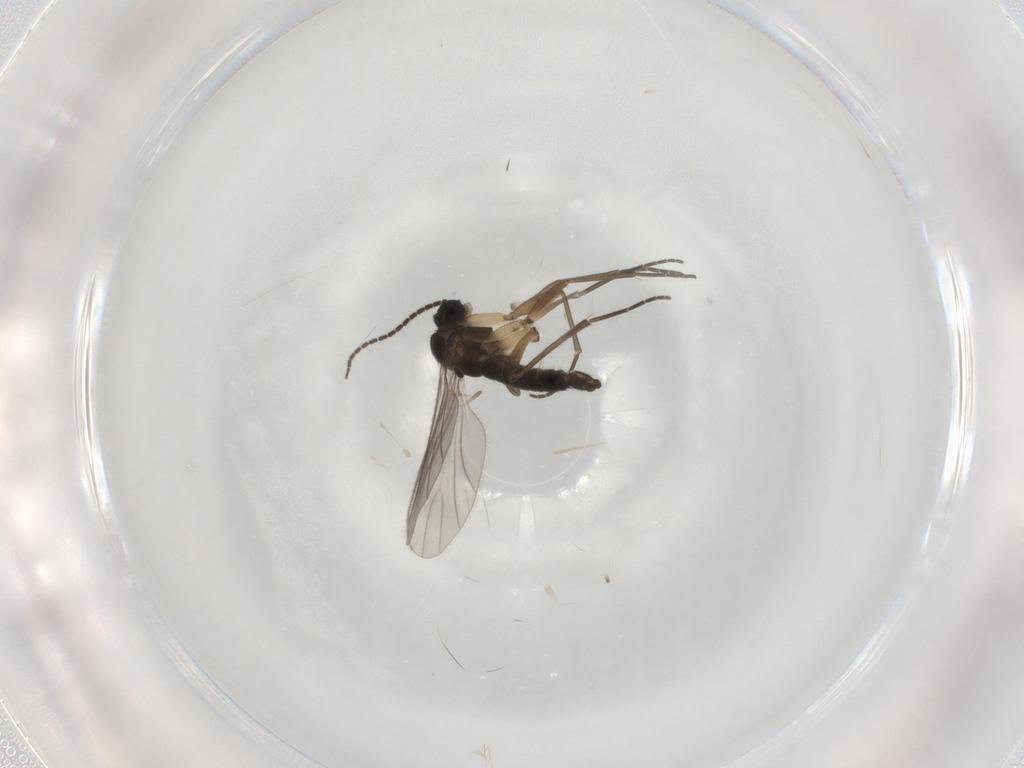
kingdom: Animalia
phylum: Arthropoda
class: Insecta
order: Diptera
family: Sciaridae
